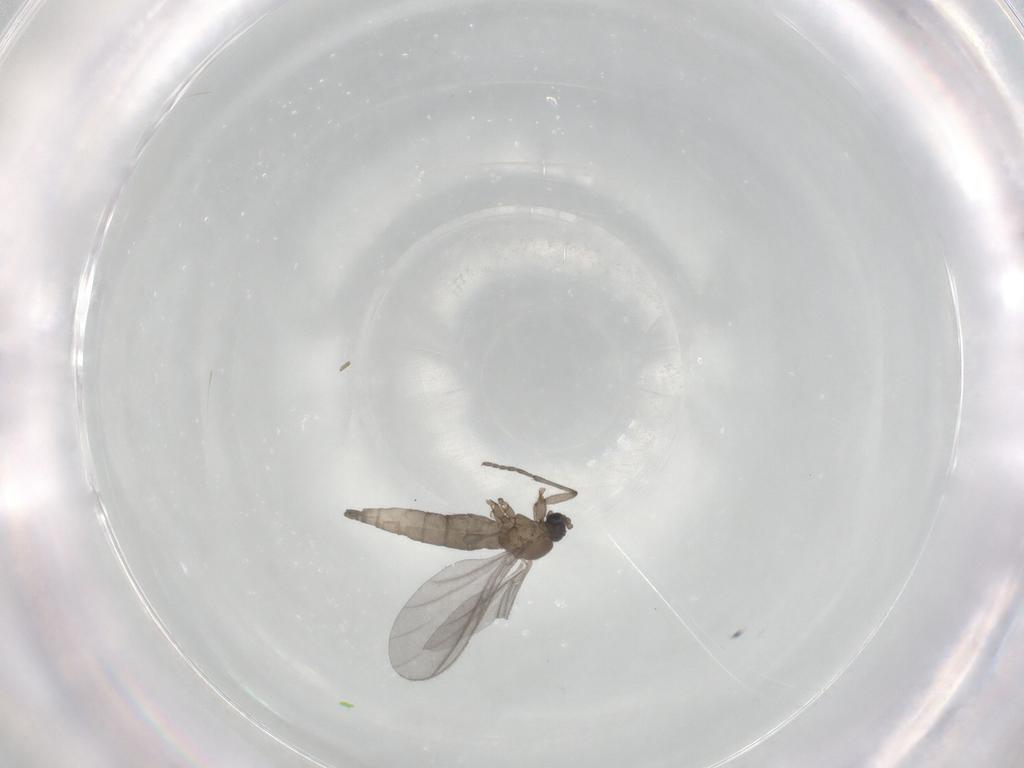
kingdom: Animalia
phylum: Arthropoda
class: Insecta
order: Diptera
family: Sciaridae
